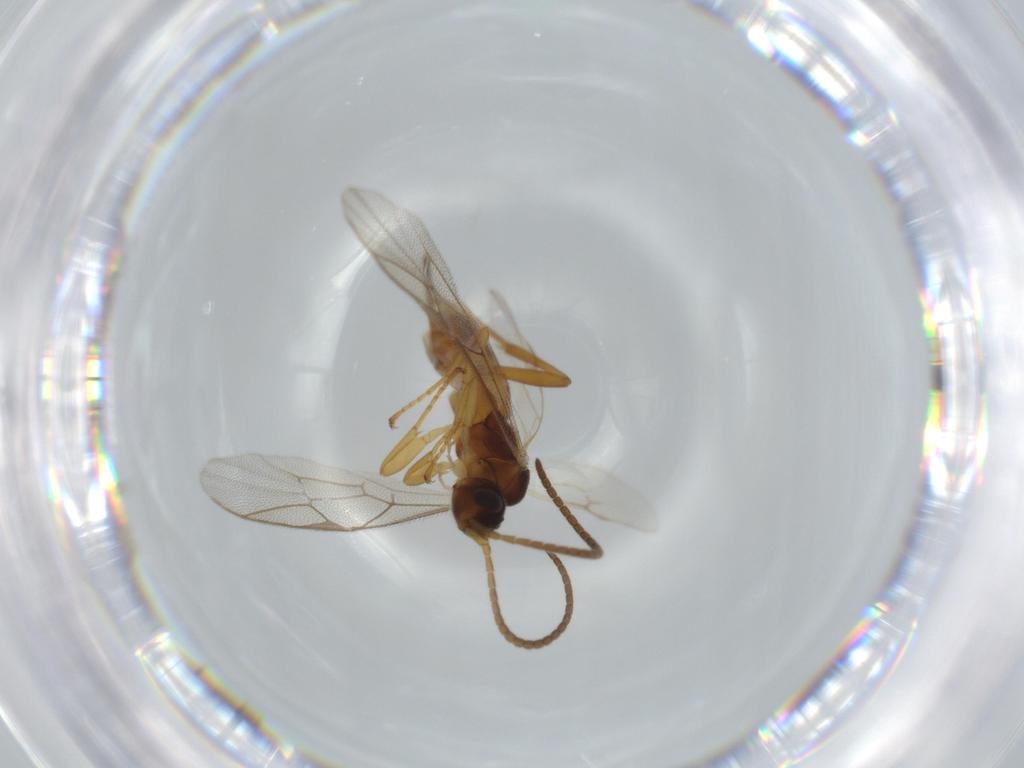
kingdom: Animalia
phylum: Arthropoda
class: Insecta
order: Hymenoptera
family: Ichneumonidae
